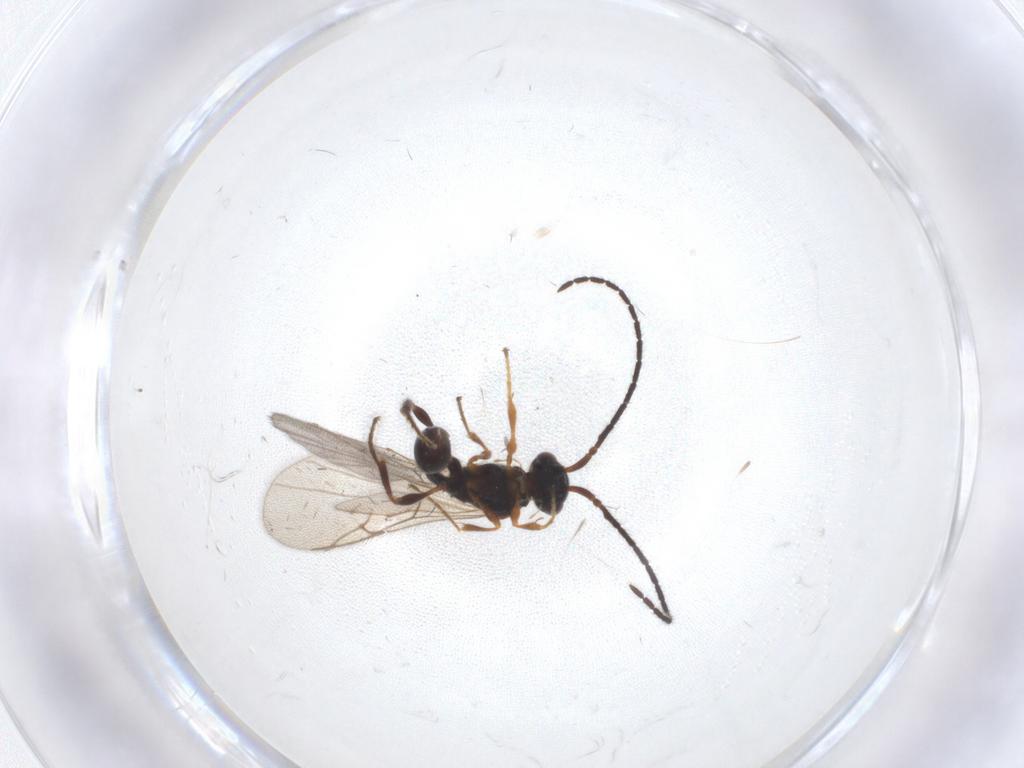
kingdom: Animalia
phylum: Arthropoda
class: Insecta
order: Hymenoptera
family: Diapriidae
